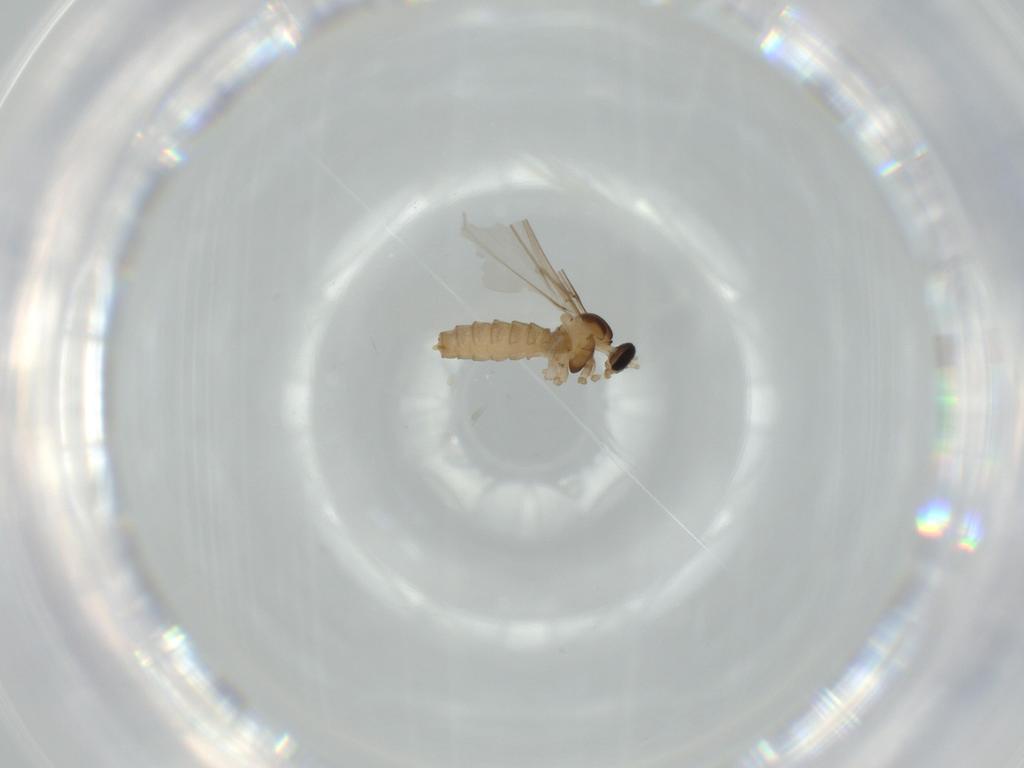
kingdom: Animalia
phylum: Arthropoda
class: Insecta
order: Diptera
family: Cecidomyiidae
